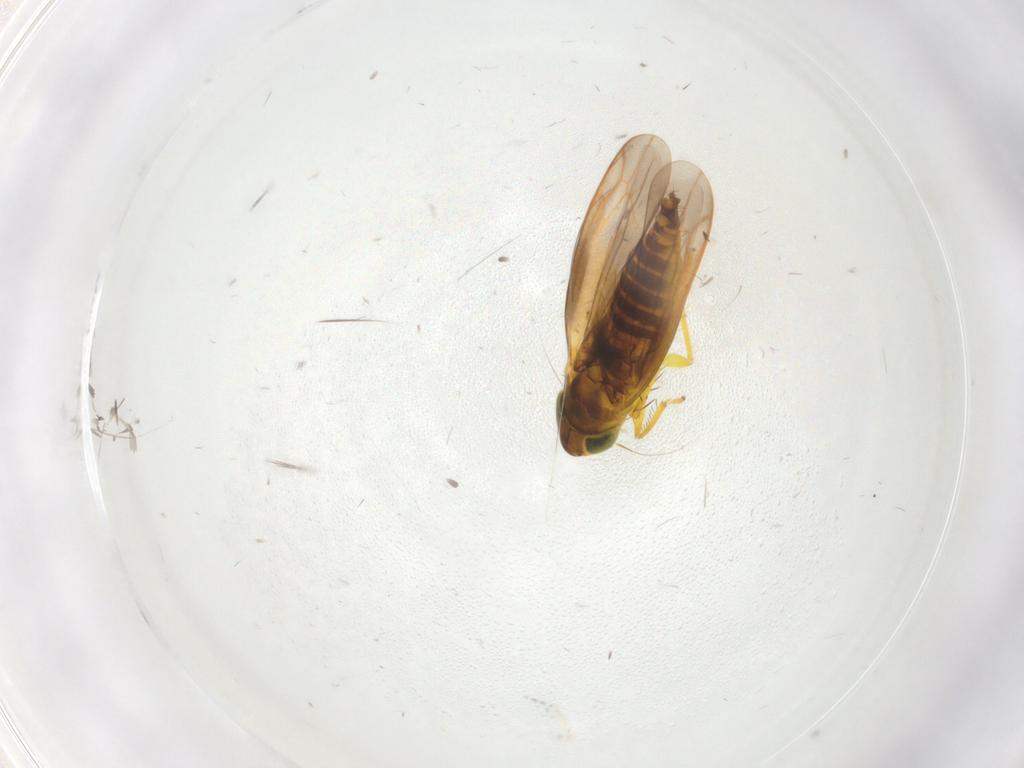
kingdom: Animalia
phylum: Arthropoda
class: Insecta
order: Diptera
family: Ceratopogonidae
